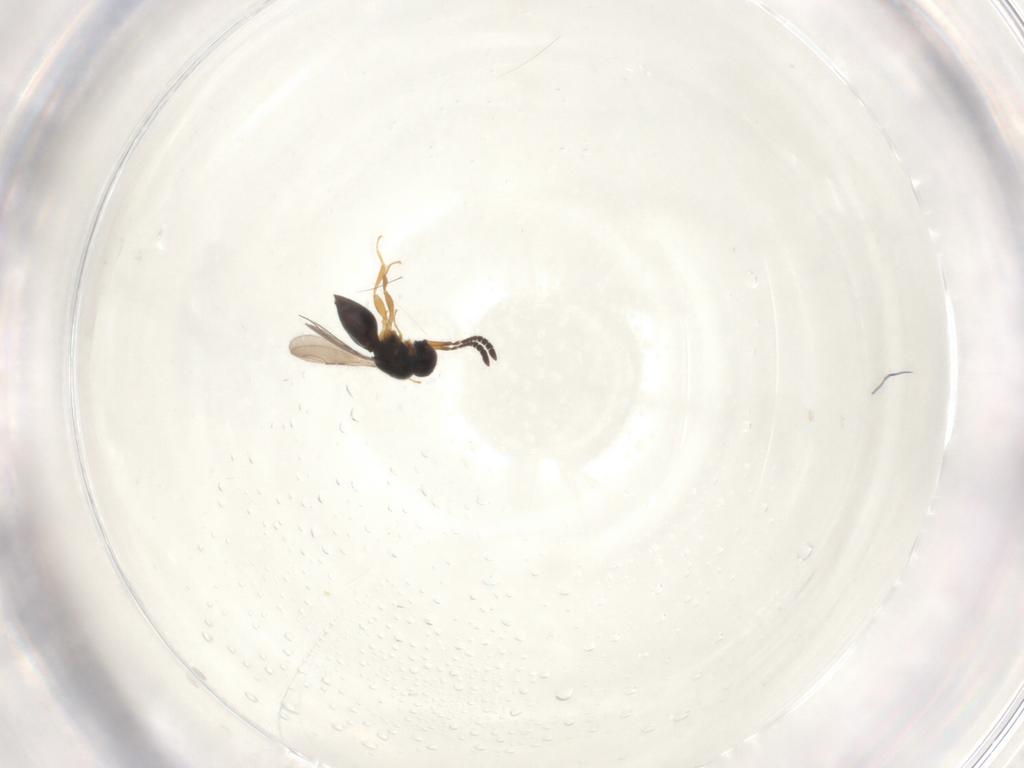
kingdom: Animalia
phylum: Arthropoda
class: Insecta
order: Hymenoptera
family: Ceraphronidae
